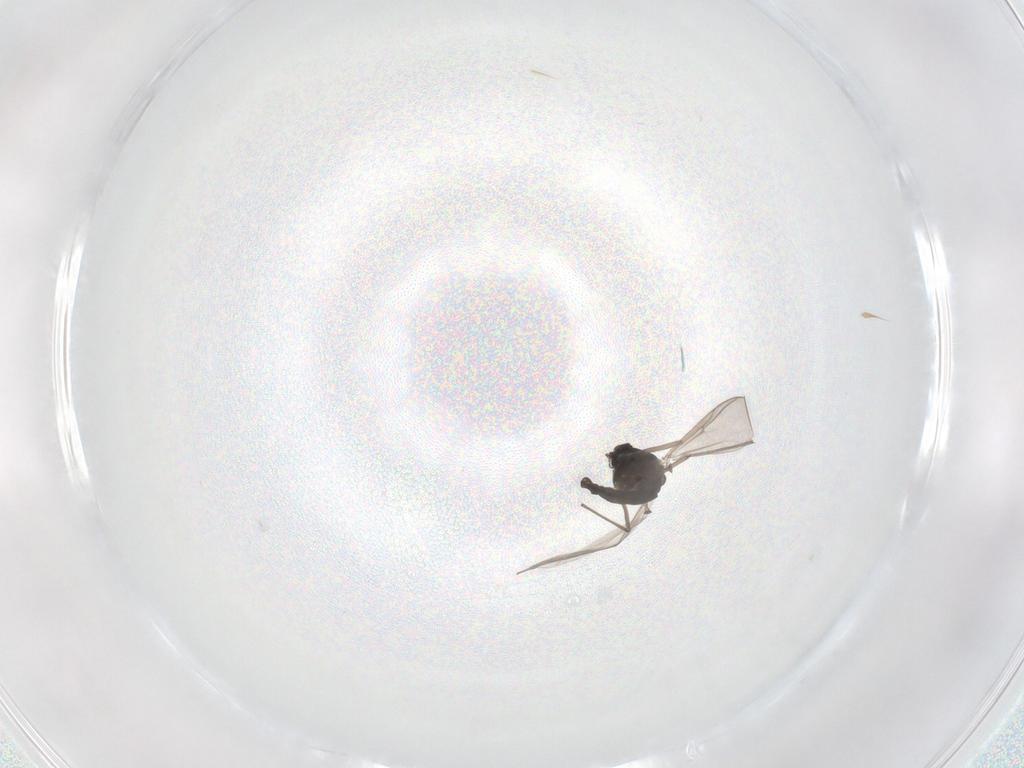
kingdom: Animalia
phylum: Arthropoda
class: Insecta
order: Diptera
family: Chironomidae
